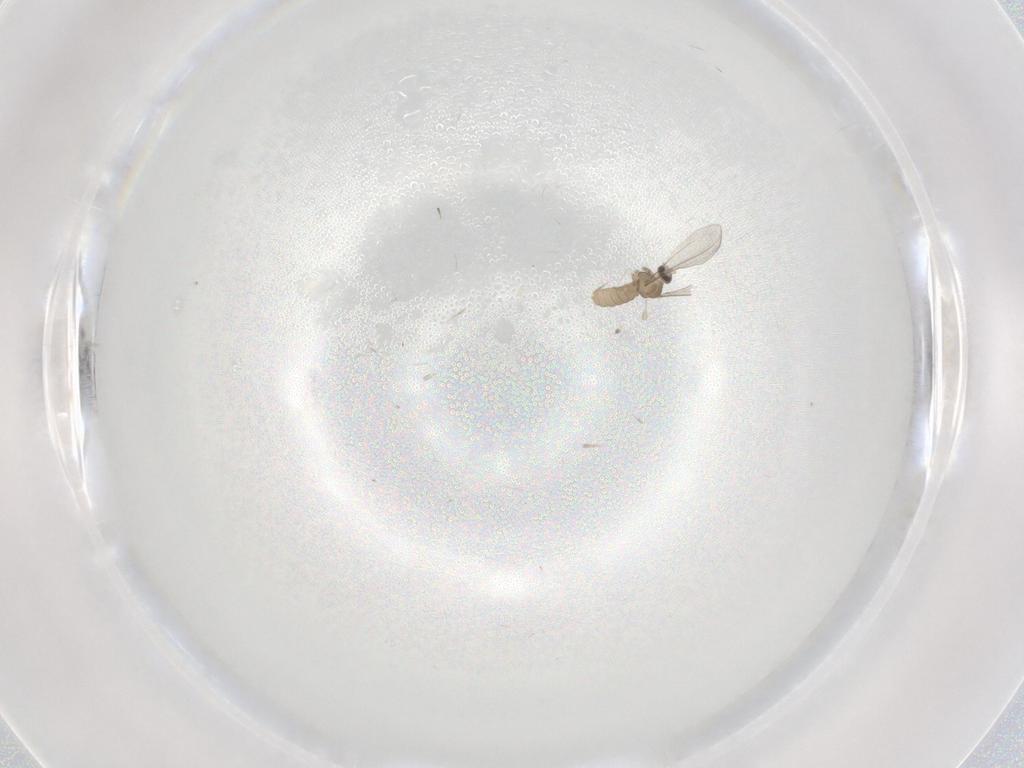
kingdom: Animalia
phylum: Arthropoda
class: Insecta
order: Diptera
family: Cecidomyiidae
